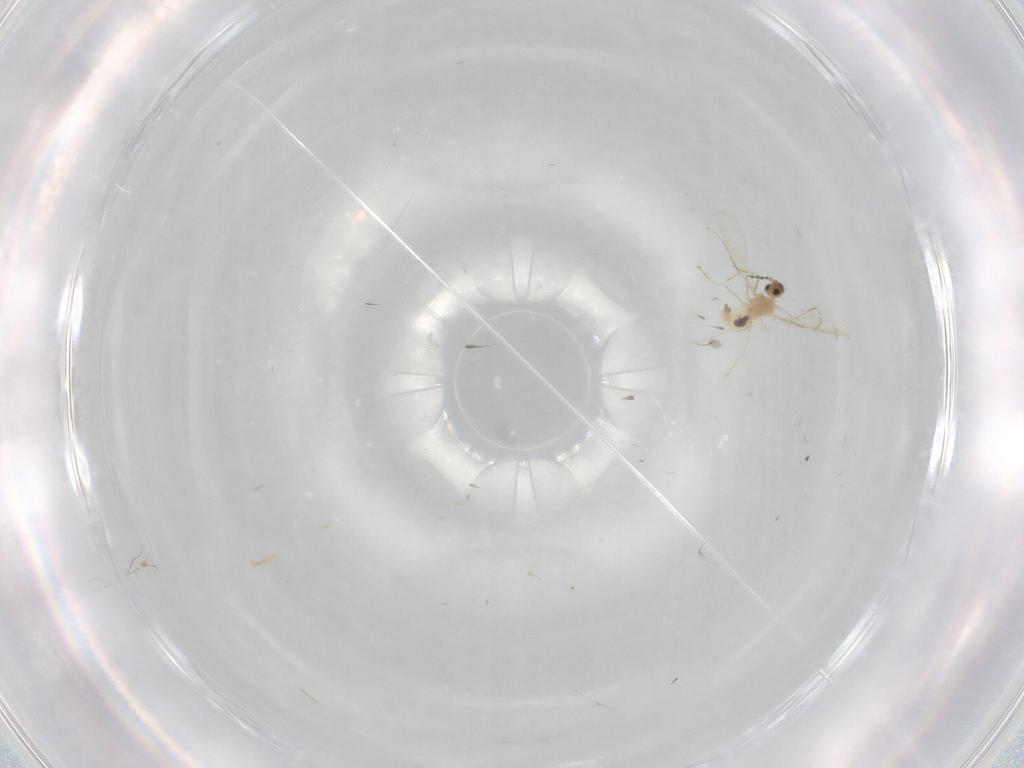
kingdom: Animalia
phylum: Arthropoda
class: Insecta
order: Diptera
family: Cecidomyiidae
